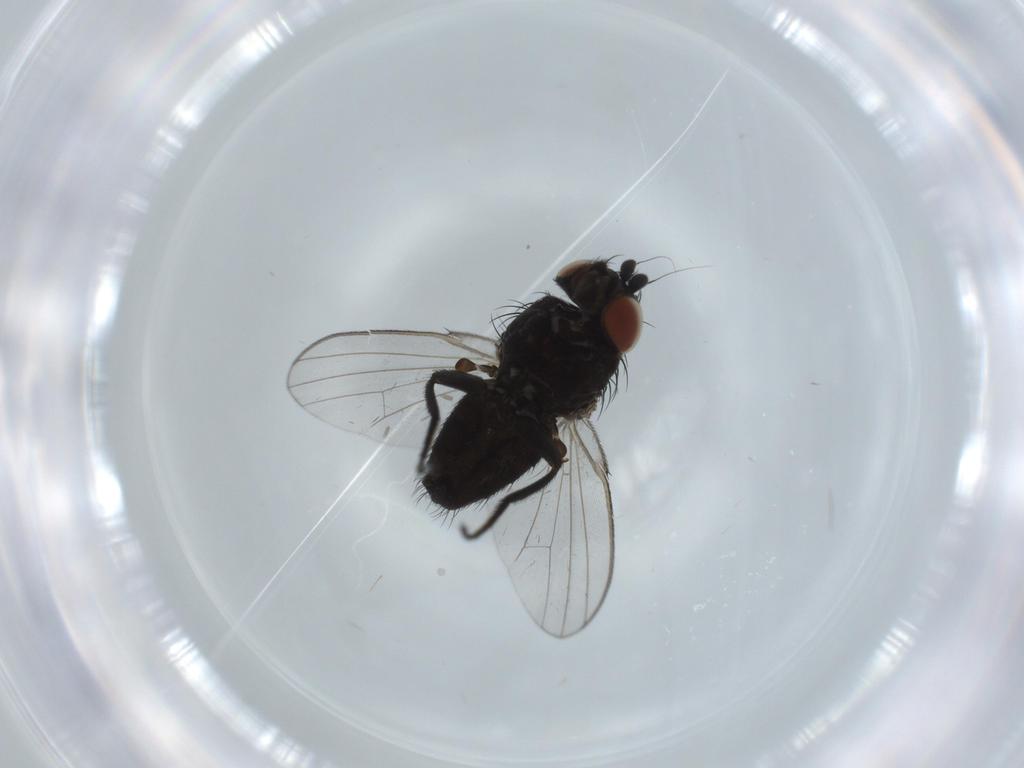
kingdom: Animalia
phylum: Arthropoda
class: Insecta
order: Diptera
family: Milichiidae
